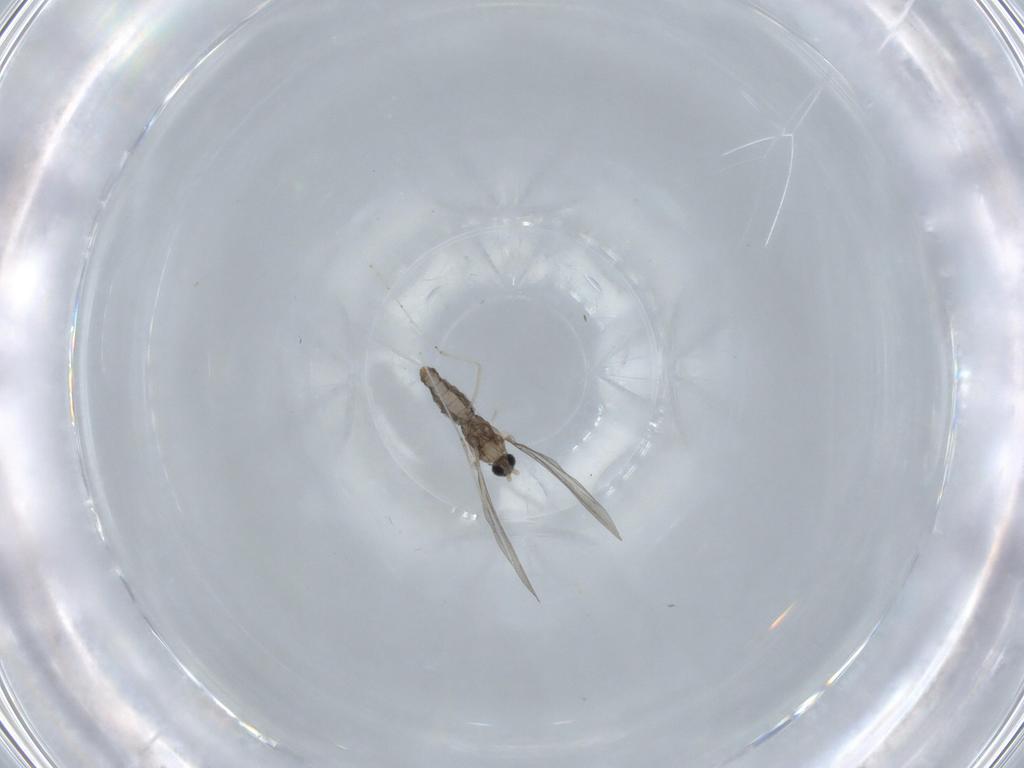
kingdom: Animalia
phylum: Arthropoda
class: Insecta
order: Diptera
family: Cecidomyiidae
